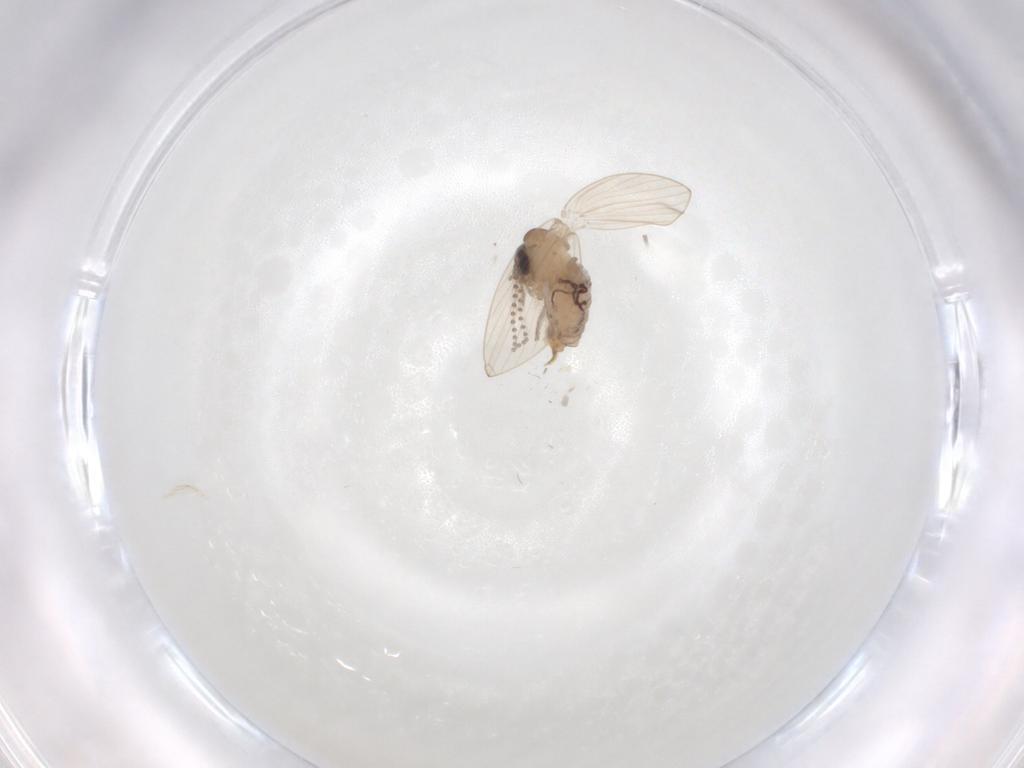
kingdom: Animalia
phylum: Arthropoda
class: Insecta
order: Diptera
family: Psychodidae
